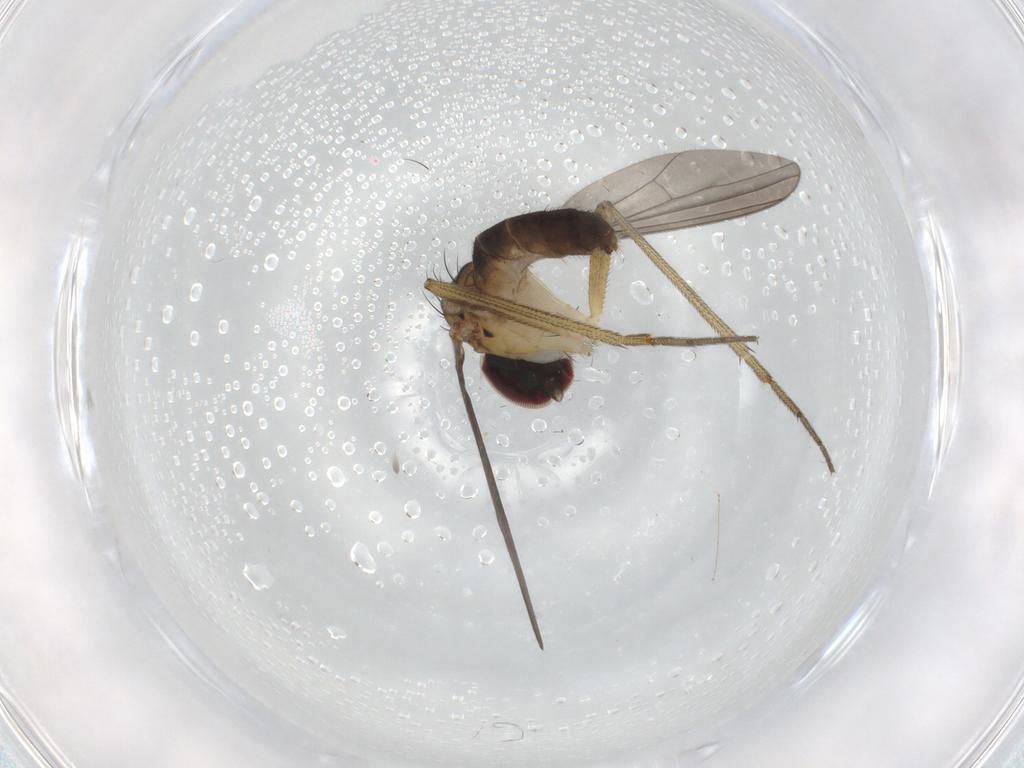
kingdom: Animalia
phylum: Arthropoda
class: Insecta
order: Diptera
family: Dolichopodidae
